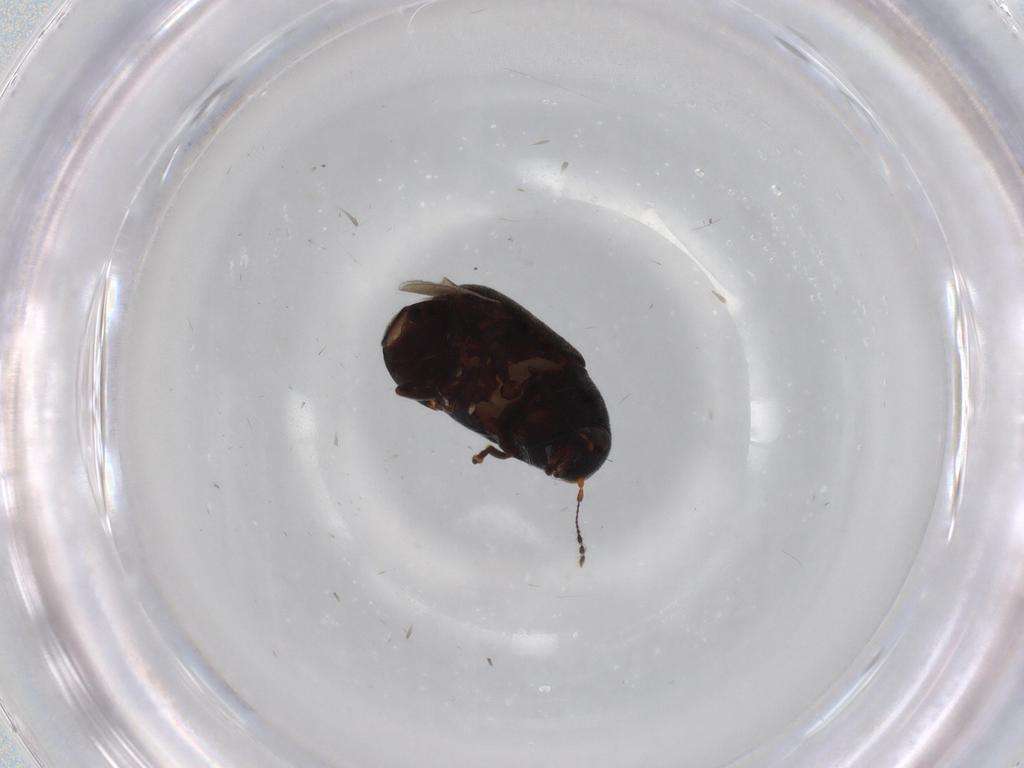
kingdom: Animalia
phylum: Arthropoda
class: Insecta
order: Coleoptera
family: Anthribidae
